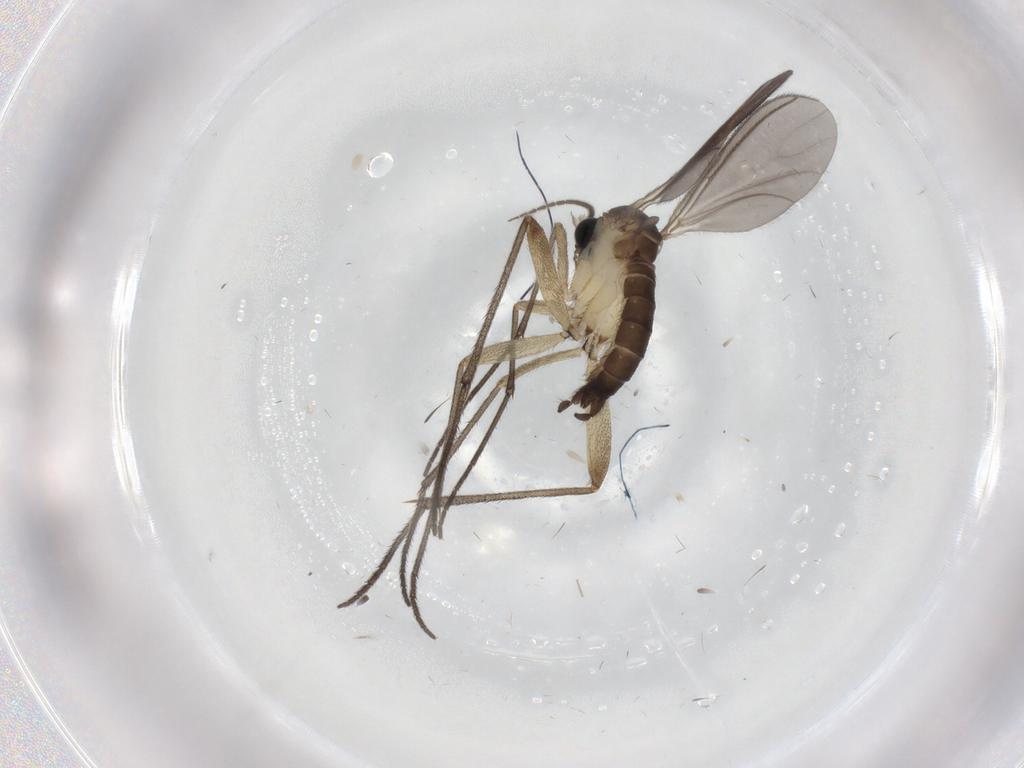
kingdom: Animalia
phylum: Arthropoda
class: Insecta
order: Diptera
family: Sciaridae
